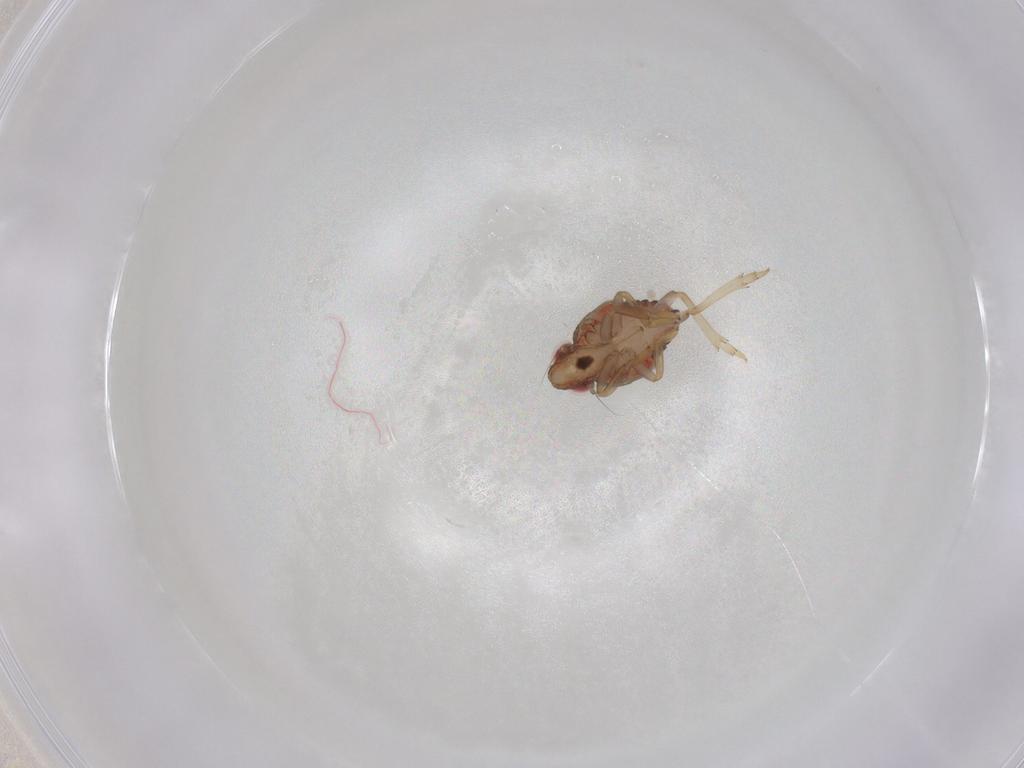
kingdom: Animalia
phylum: Arthropoda
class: Insecta
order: Hemiptera
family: Issidae
